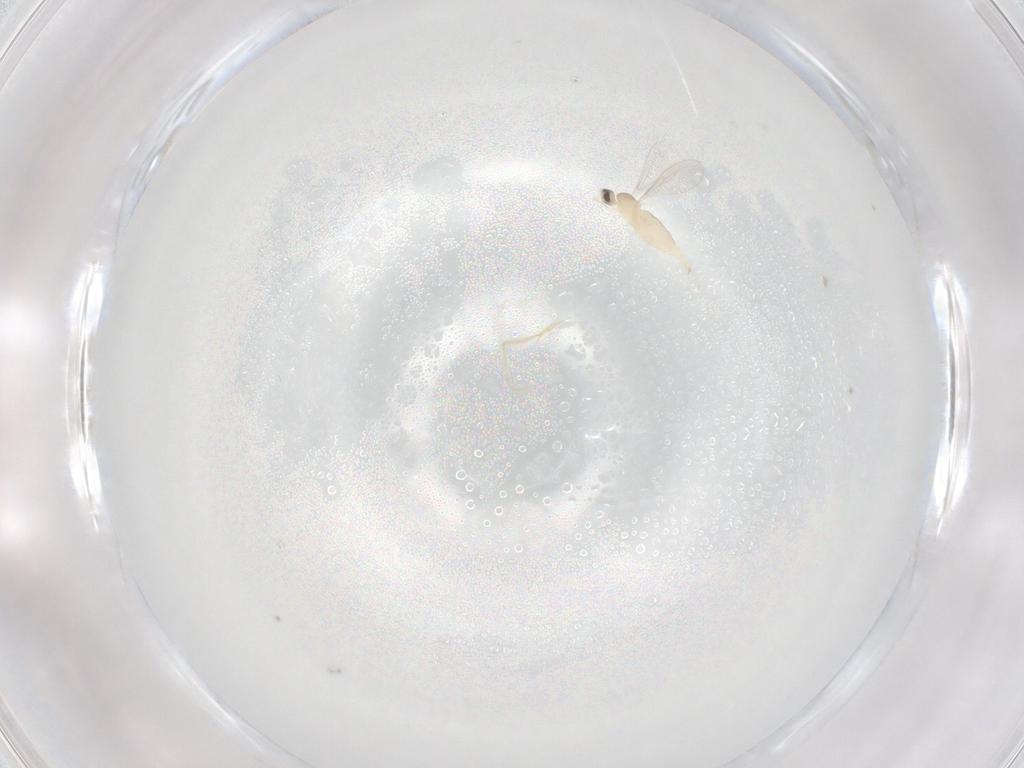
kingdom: Animalia
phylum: Arthropoda
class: Insecta
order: Diptera
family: Cecidomyiidae
